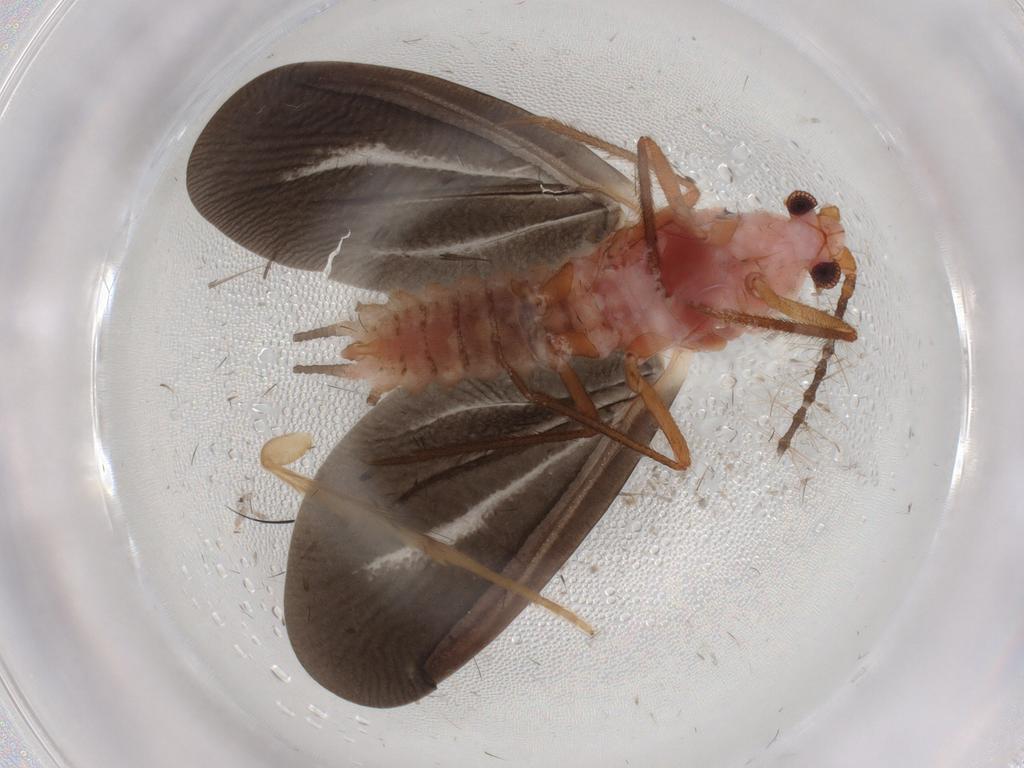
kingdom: Animalia
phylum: Arthropoda
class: Insecta
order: Hemiptera
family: Margarodidae
